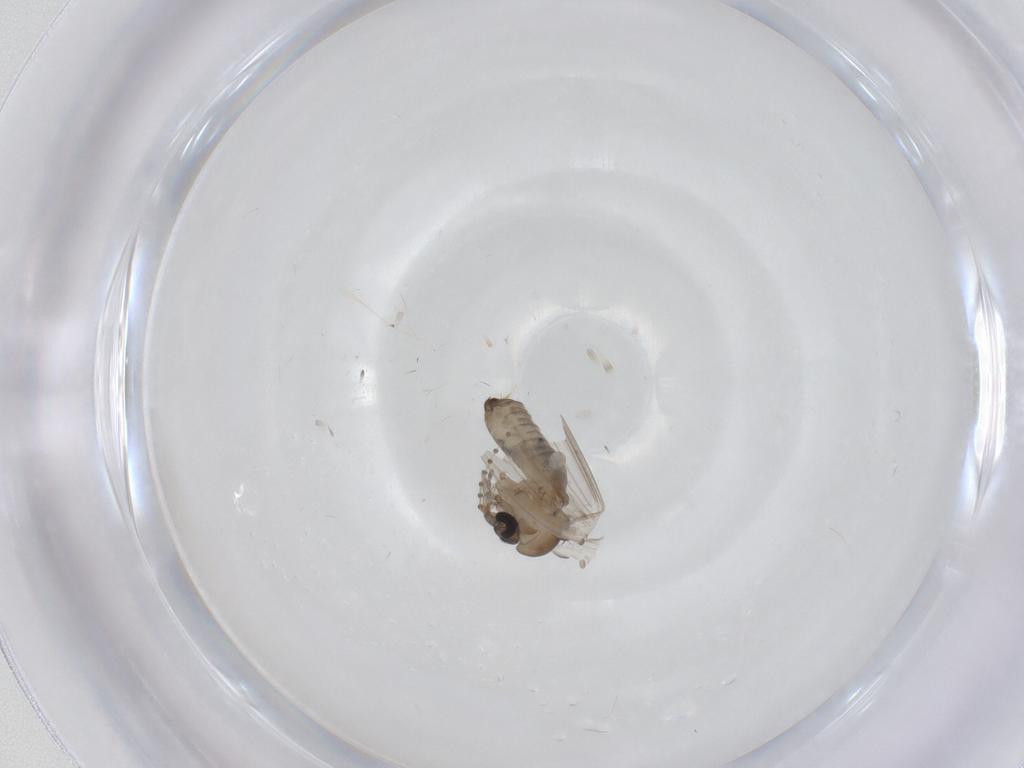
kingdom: Animalia
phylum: Arthropoda
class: Insecta
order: Diptera
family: Psychodidae
